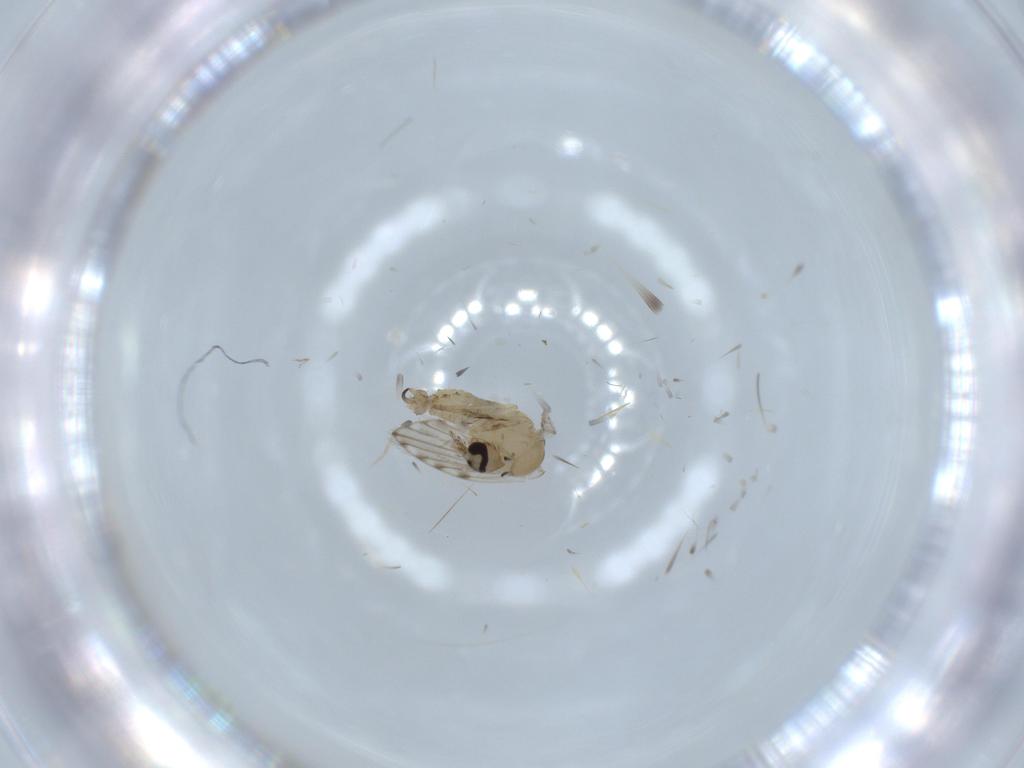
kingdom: Animalia
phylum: Arthropoda
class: Insecta
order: Diptera
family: Psychodidae
